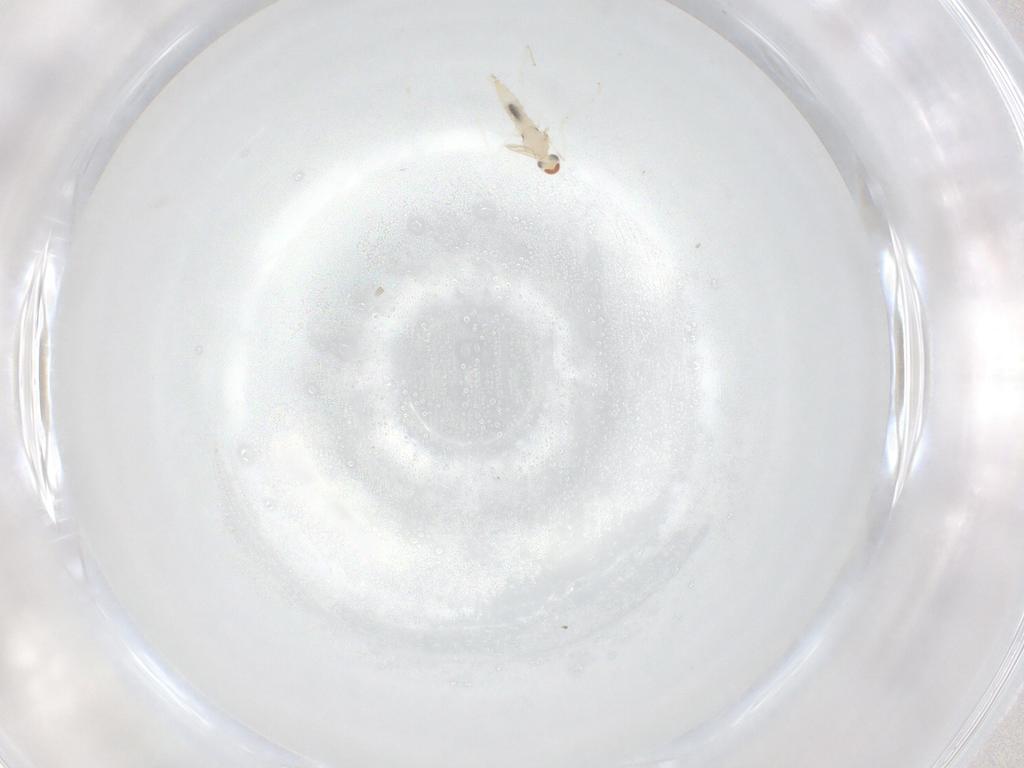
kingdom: Animalia
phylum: Arthropoda
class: Insecta
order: Diptera
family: Cecidomyiidae
